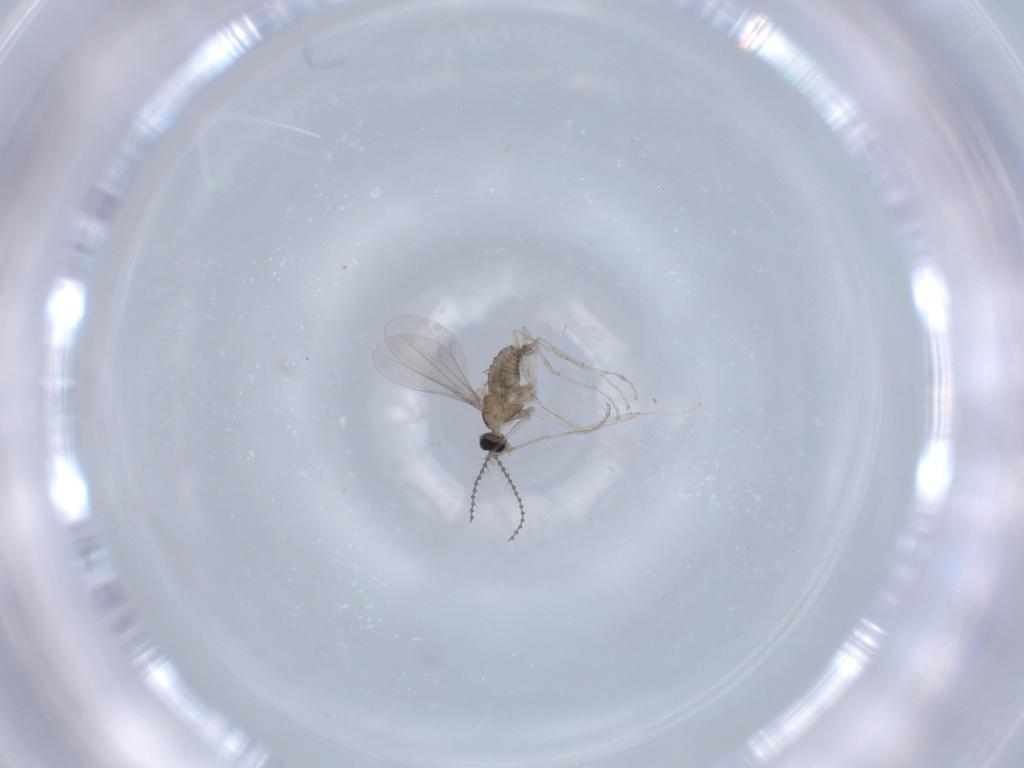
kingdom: Animalia
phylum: Arthropoda
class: Insecta
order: Diptera
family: Cecidomyiidae
